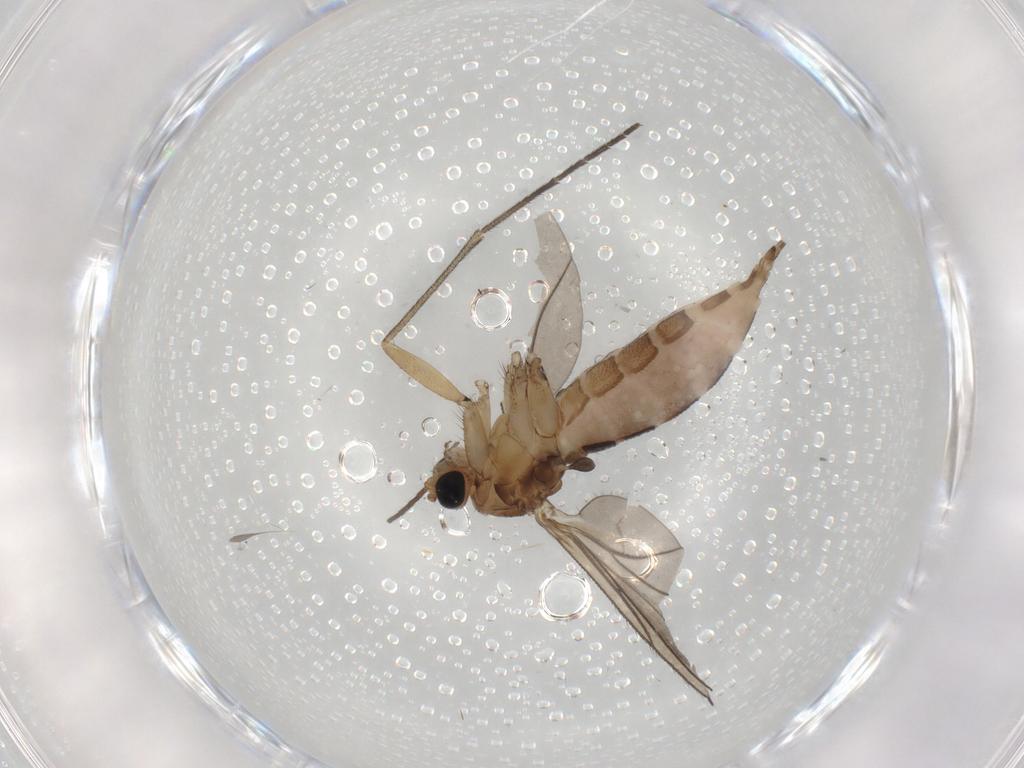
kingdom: Animalia
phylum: Arthropoda
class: Insecta
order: Diptera
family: Sciaridae
